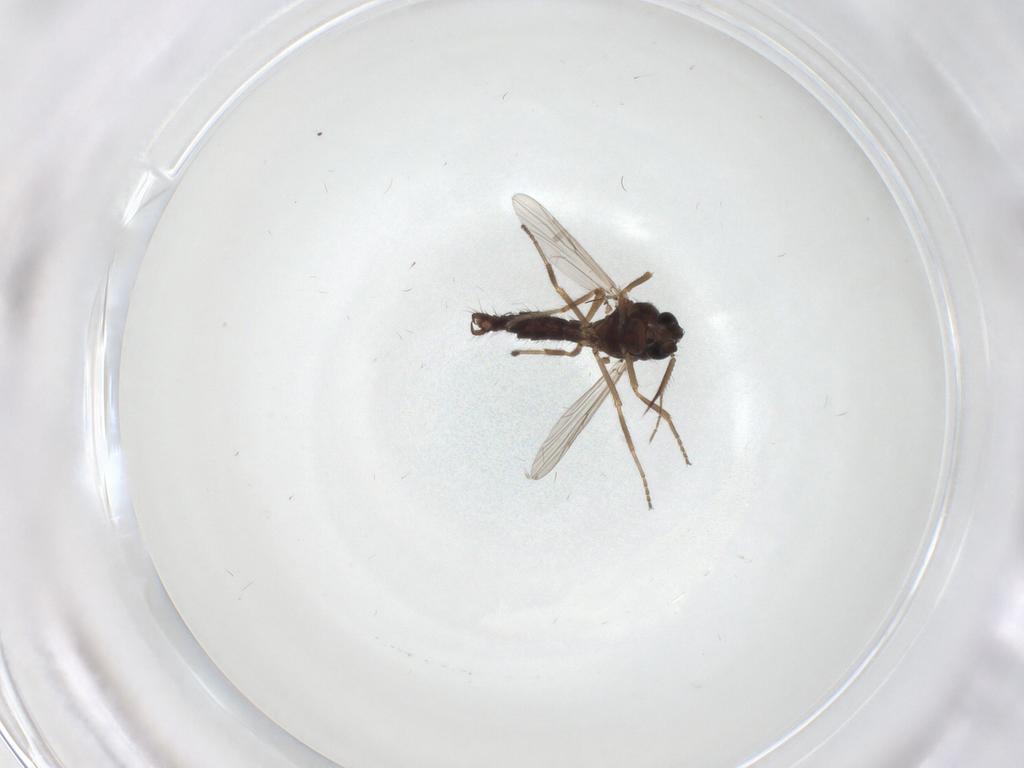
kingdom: Animalia
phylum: Arthropoda
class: Insecta
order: Diptera
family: Ceratopogonidae
